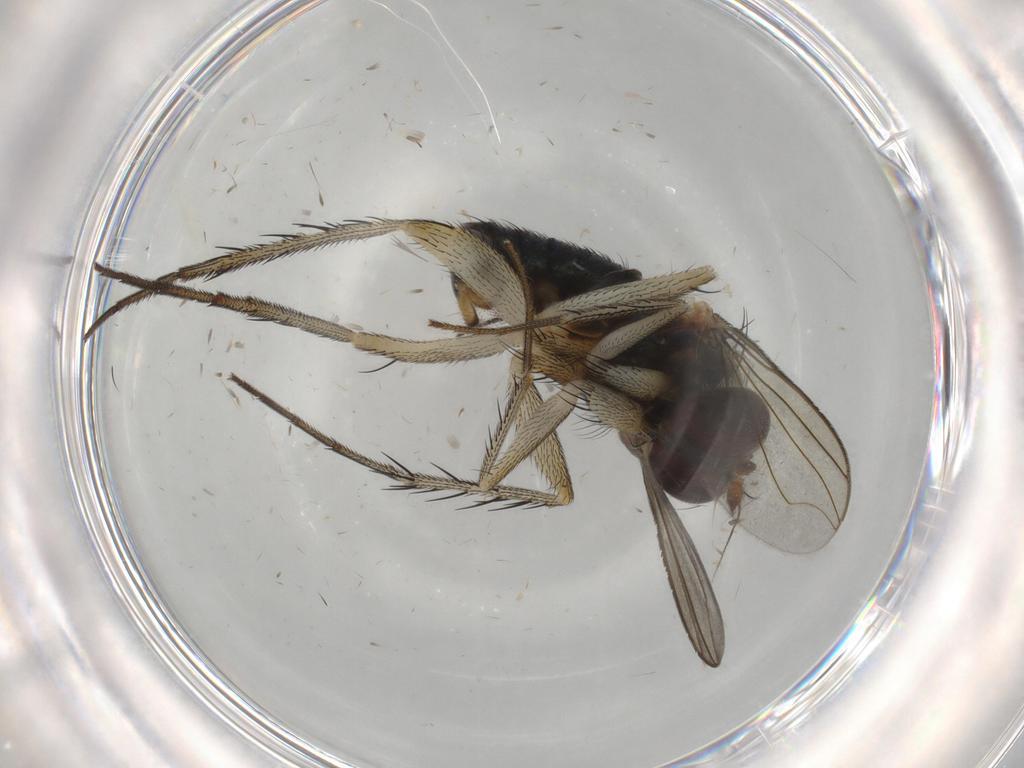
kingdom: Animalia
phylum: Arthropoda
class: Insecta
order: Diptera
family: Dolichopodidae
